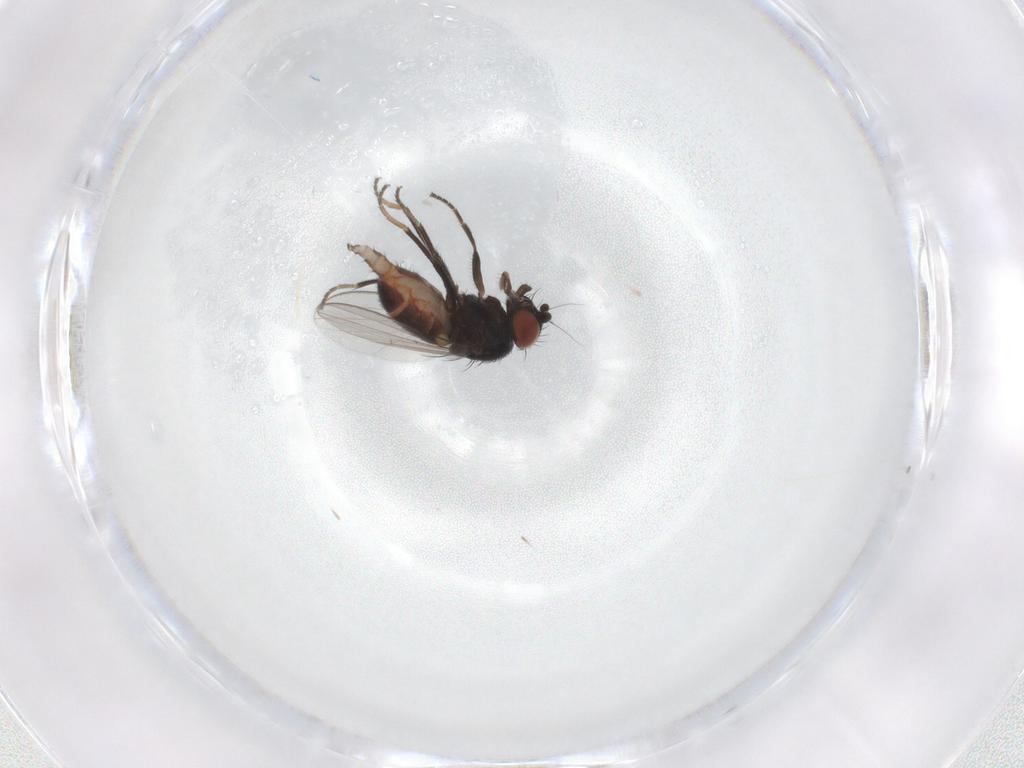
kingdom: Animalia
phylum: Arthropoda
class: Insecta
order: Diptera
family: Milichiidae
